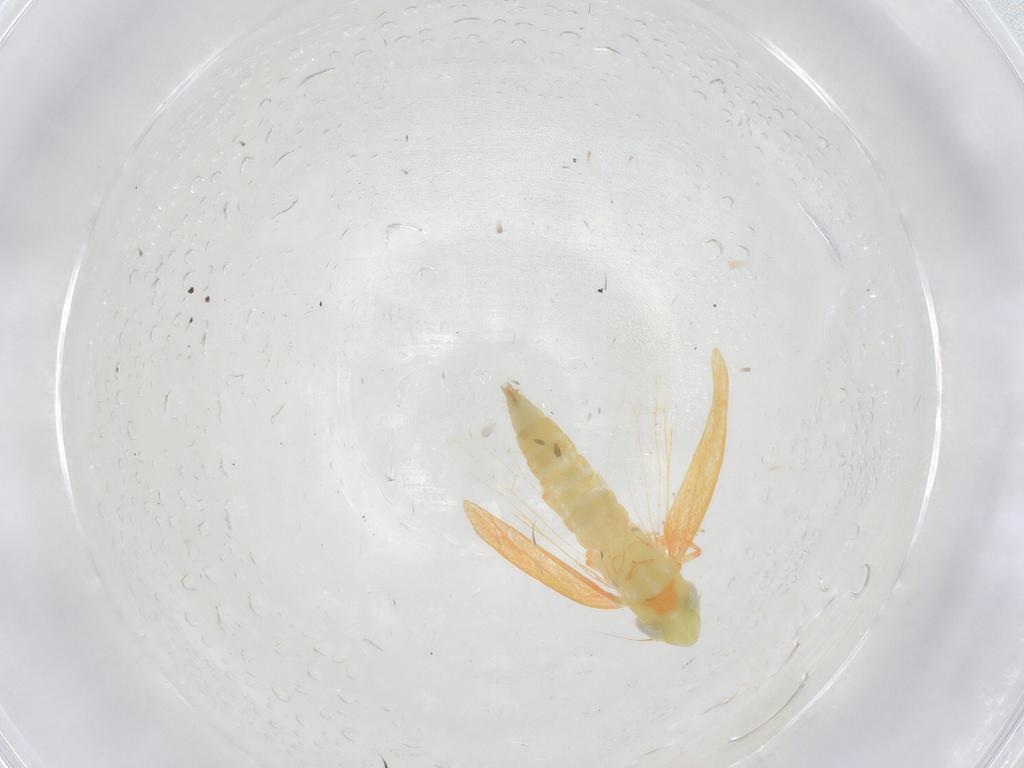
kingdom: Animalia
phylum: Arthropoda
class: Insecta
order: Hemiptera
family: Cicadellidae
